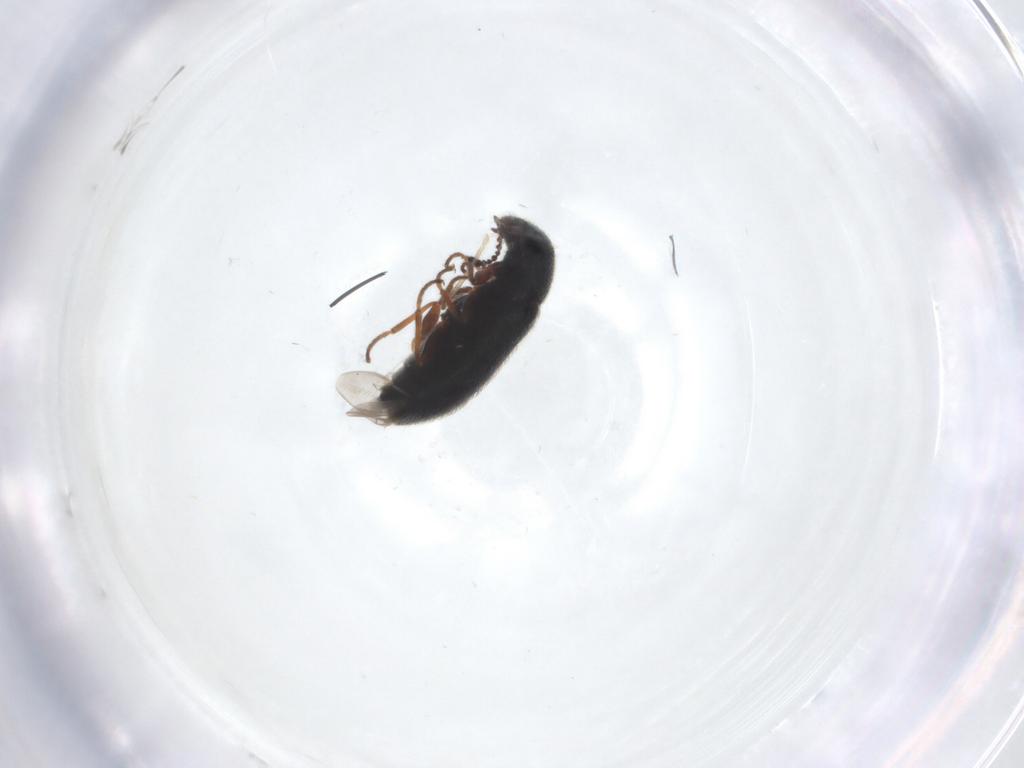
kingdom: Animalia
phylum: Arthropoda
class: Insecta
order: Coleoptera
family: Melyridae
